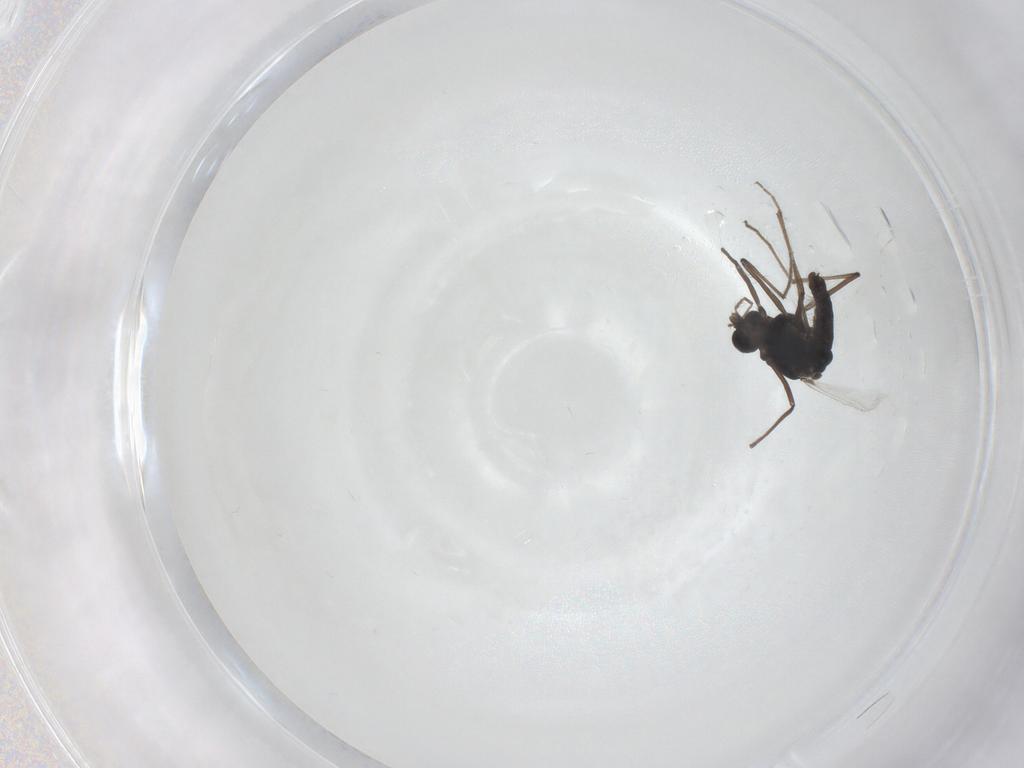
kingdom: Animalia
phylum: Arthropoda
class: Insecta
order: Diptera
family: Chironomidae
